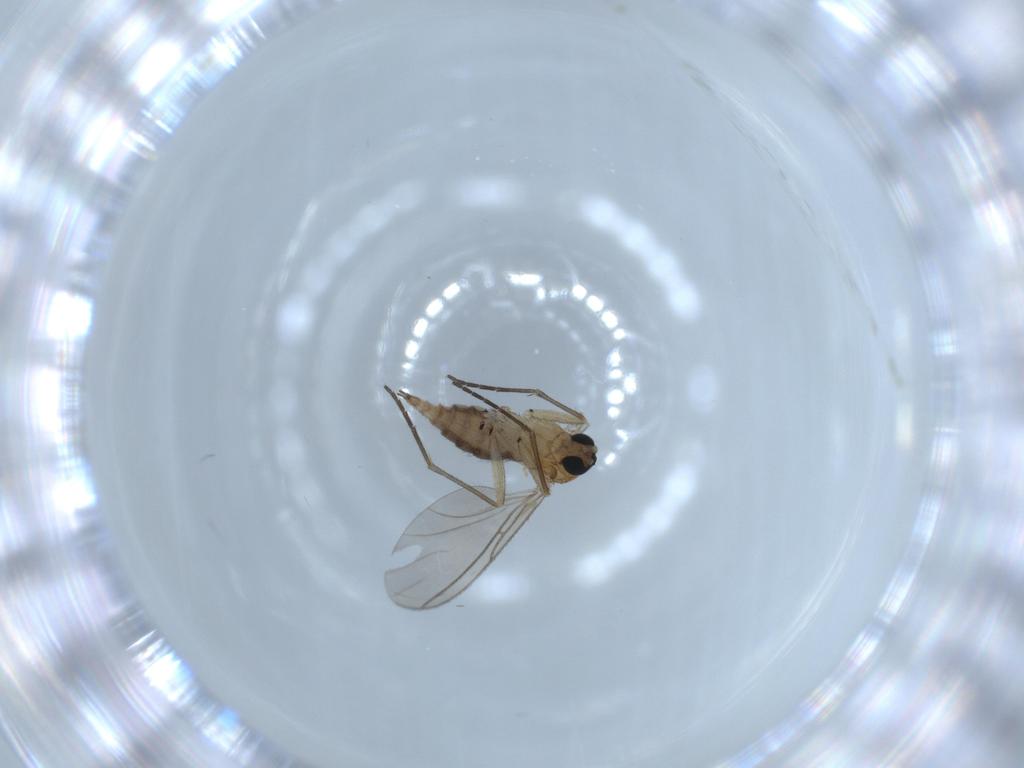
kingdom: Animalia
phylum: Arthropoda
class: Insecta
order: Diptera
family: Sciaridae
